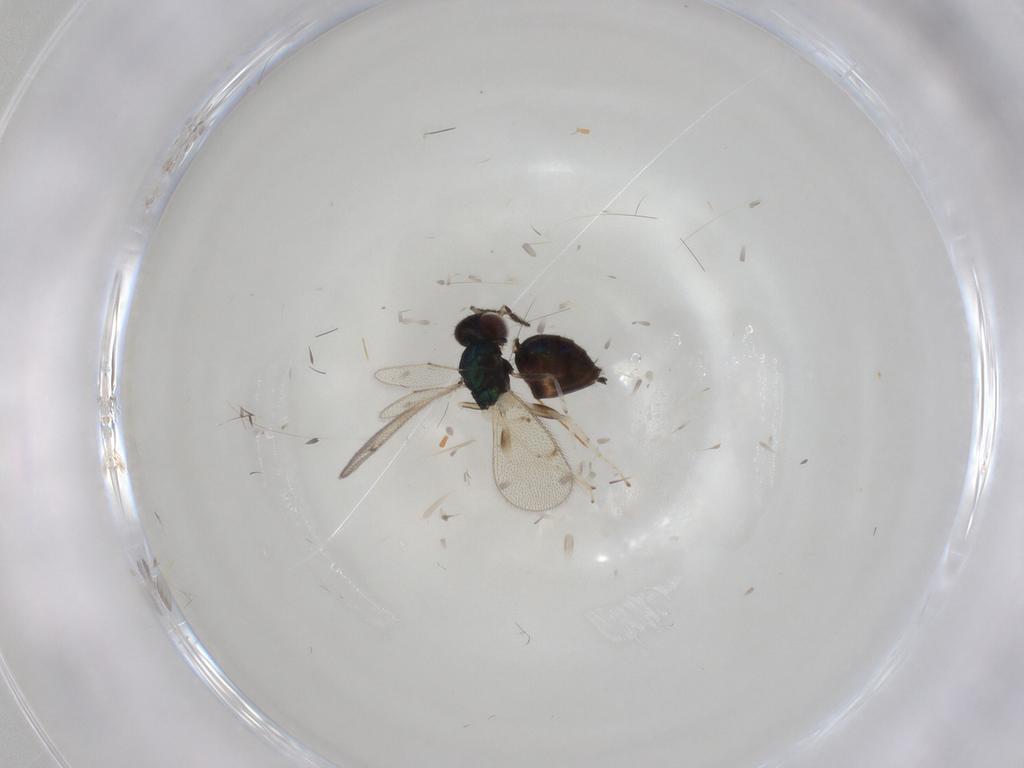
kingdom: Animalia
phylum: Arthropoda
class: Insecta
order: Hymenoptera
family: Eulophidae
